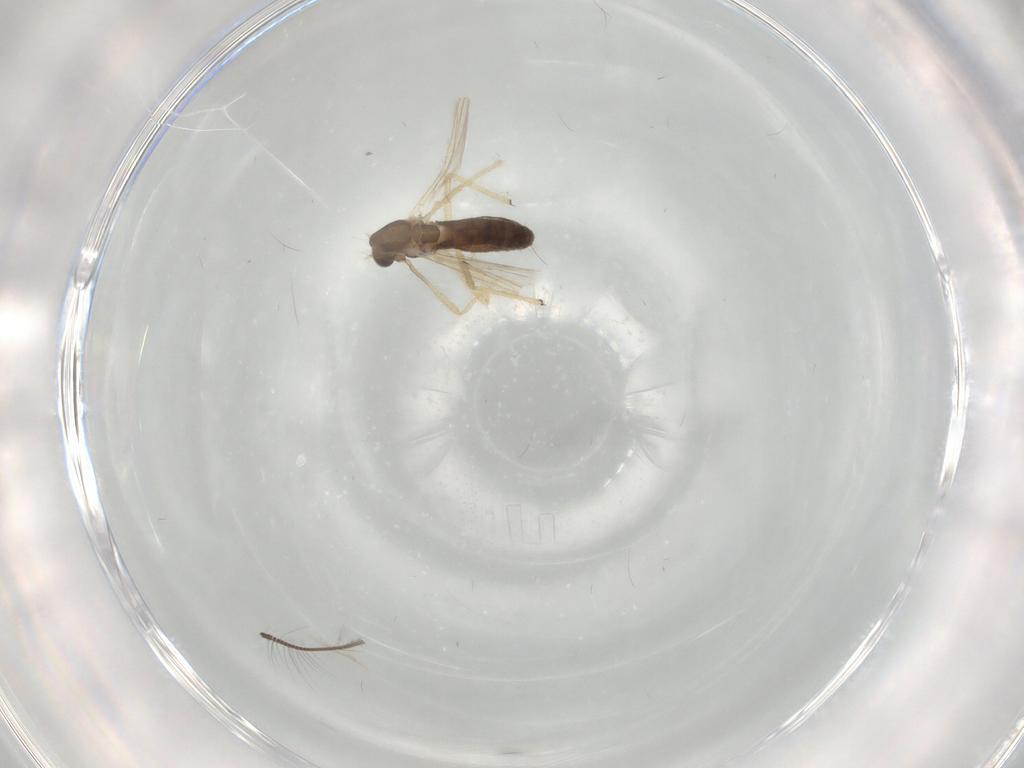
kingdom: Animalia
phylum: Arthropoda
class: Insecta
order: Diptera
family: Chironomidae
